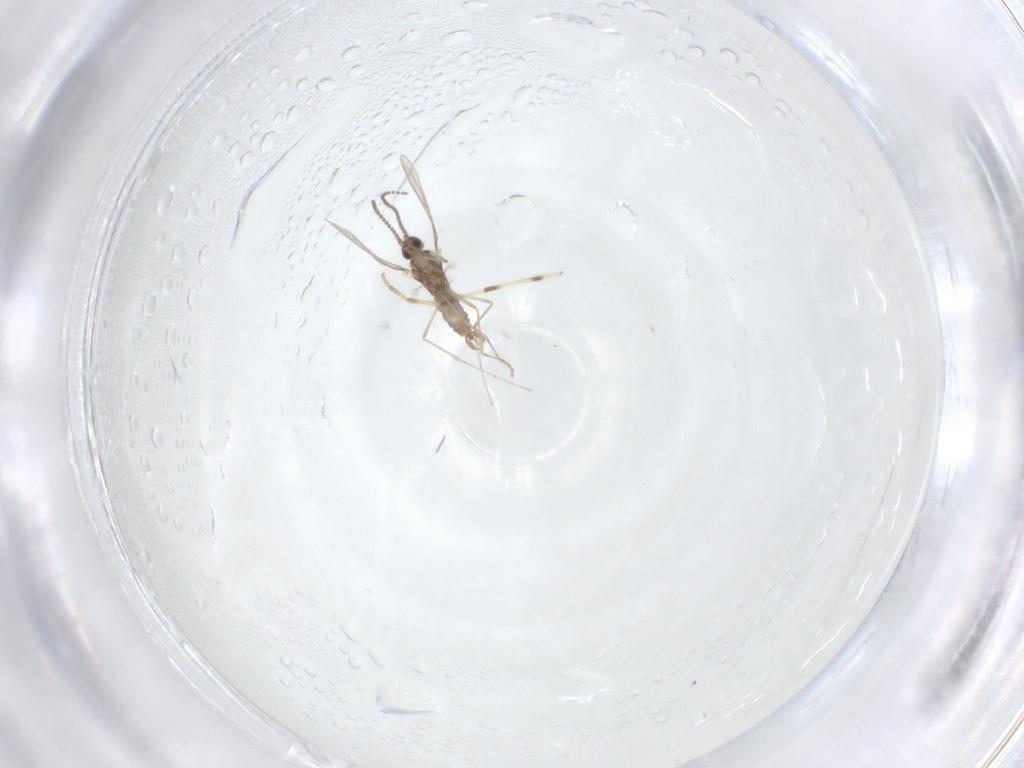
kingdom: Animalia
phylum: Arthropoda
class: Insecta
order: Diptera
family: Cecidomyiidae
